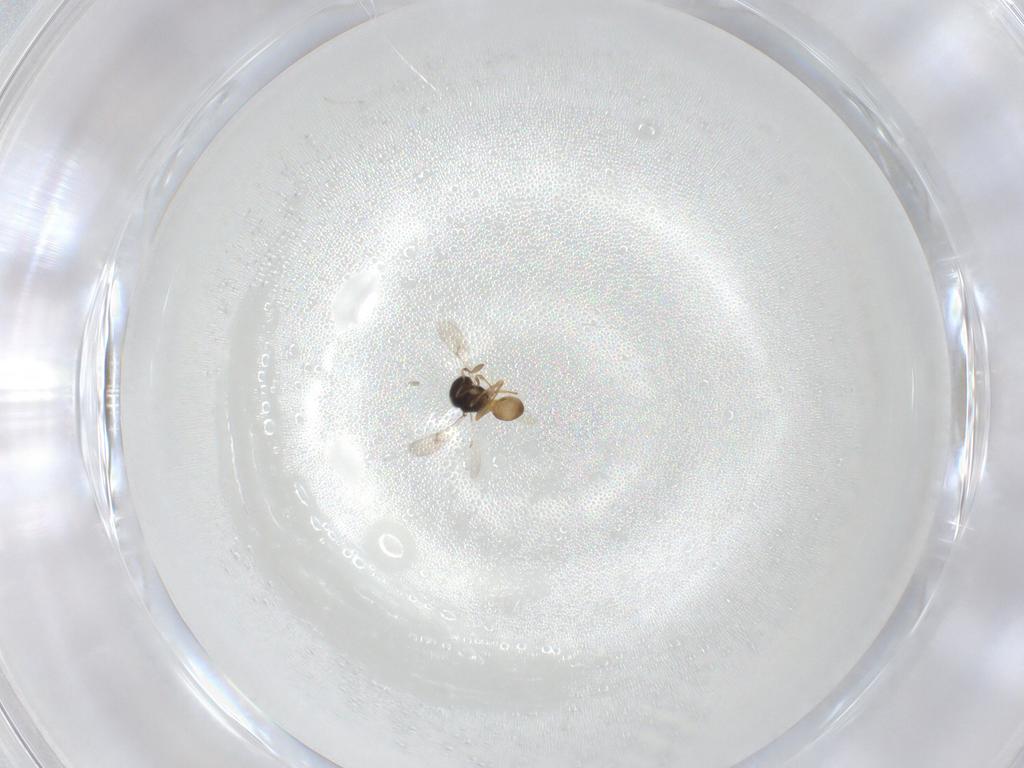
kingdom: Animalia
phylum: Arthropoda
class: Insecta
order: Hymenoptera
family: Scelionidae
